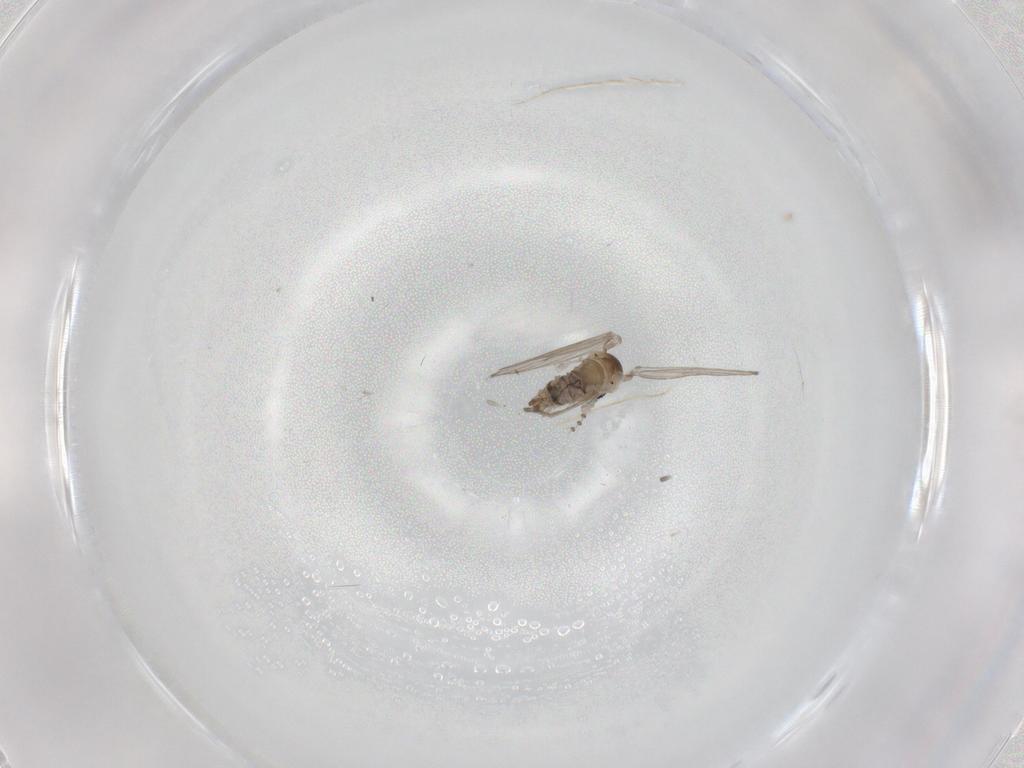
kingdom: Animalia
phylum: Arthropoda
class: Insecta
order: Diptera
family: Psychodidae
